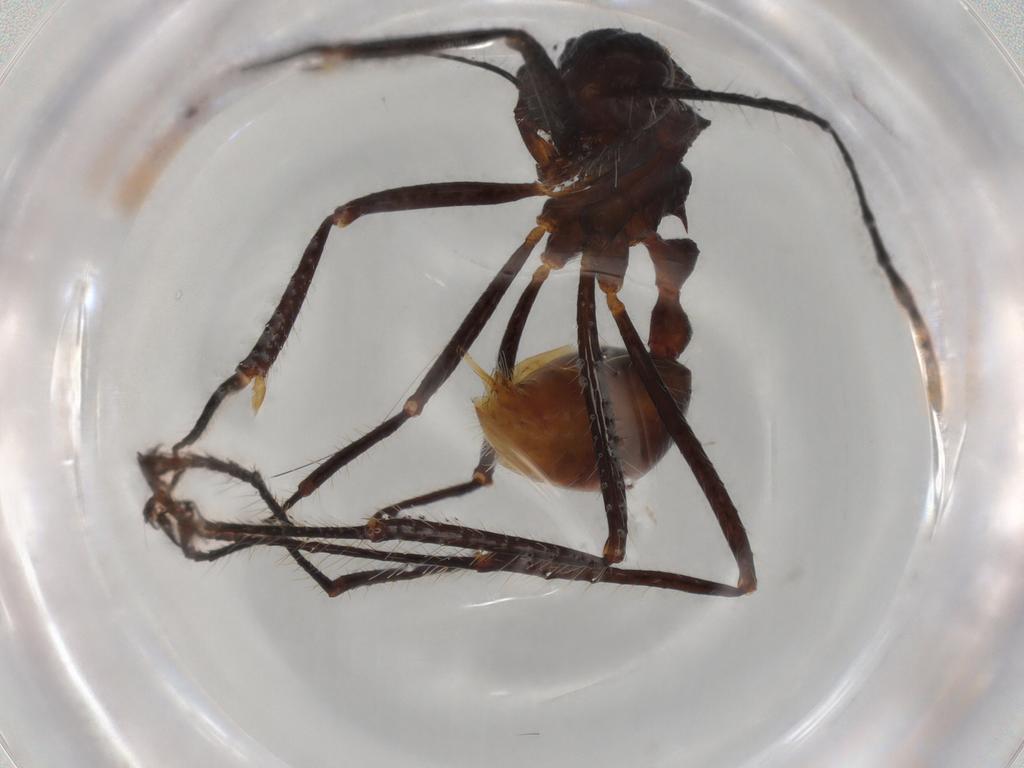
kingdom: Animalia
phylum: Arthropoda
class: Insecta
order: Hymenoptera
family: Formicidae
